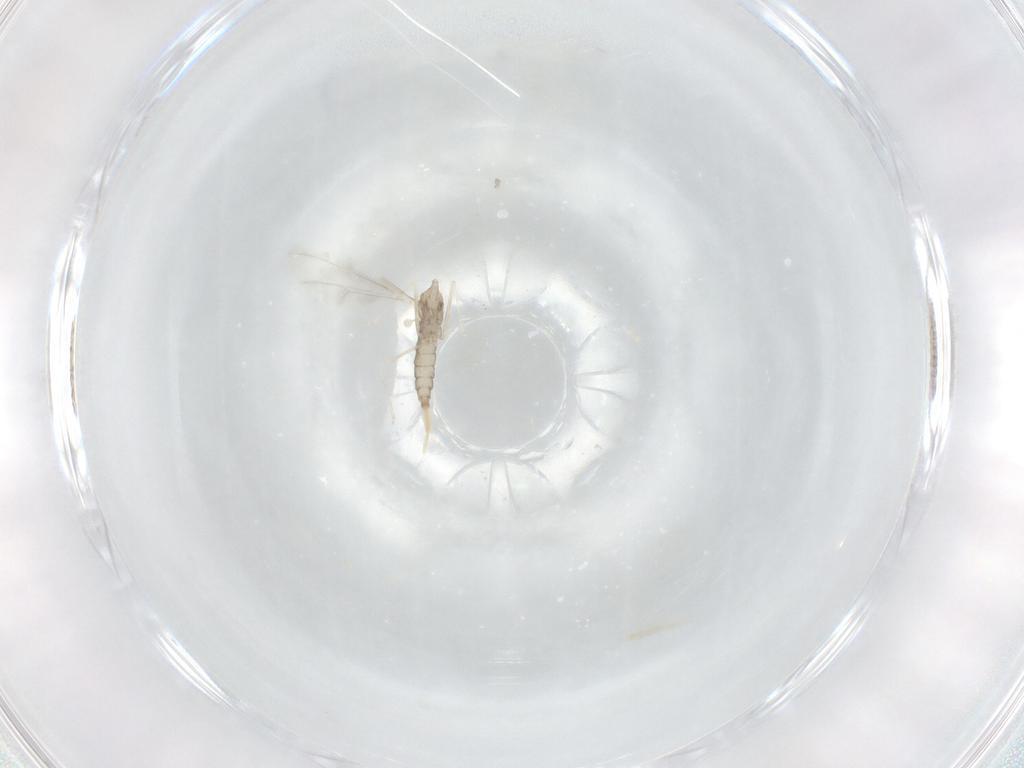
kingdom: Animalia
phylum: Arthropoda
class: Insecta
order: Diptera
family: Cecidomyiidae
